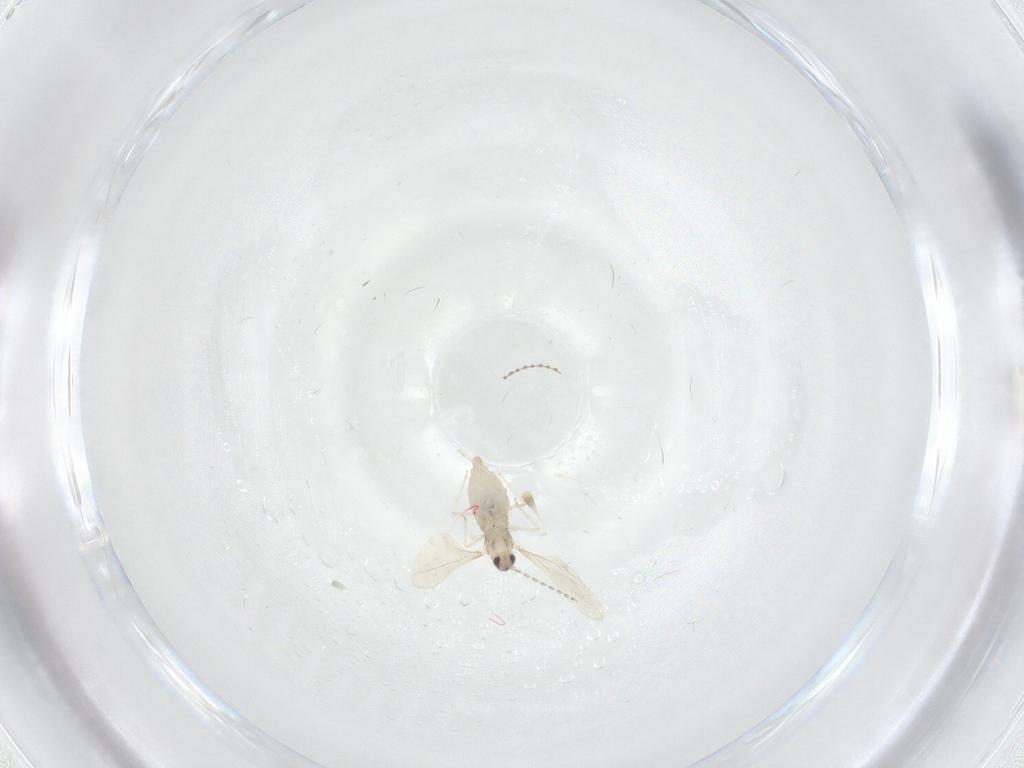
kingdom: Animalia
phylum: Arthropoda
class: Insecta
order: Diptera
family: Cecidomyiidae
